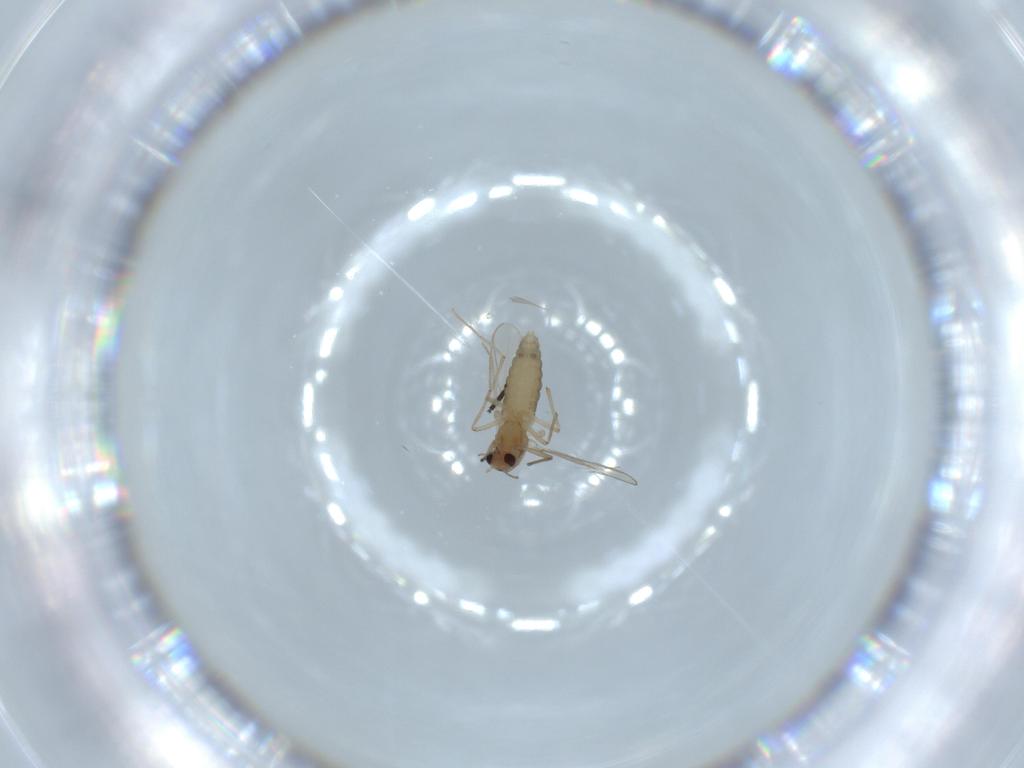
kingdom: Animalia
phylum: Arthropoda
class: Insecta
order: Diptera
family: Chironomidae
